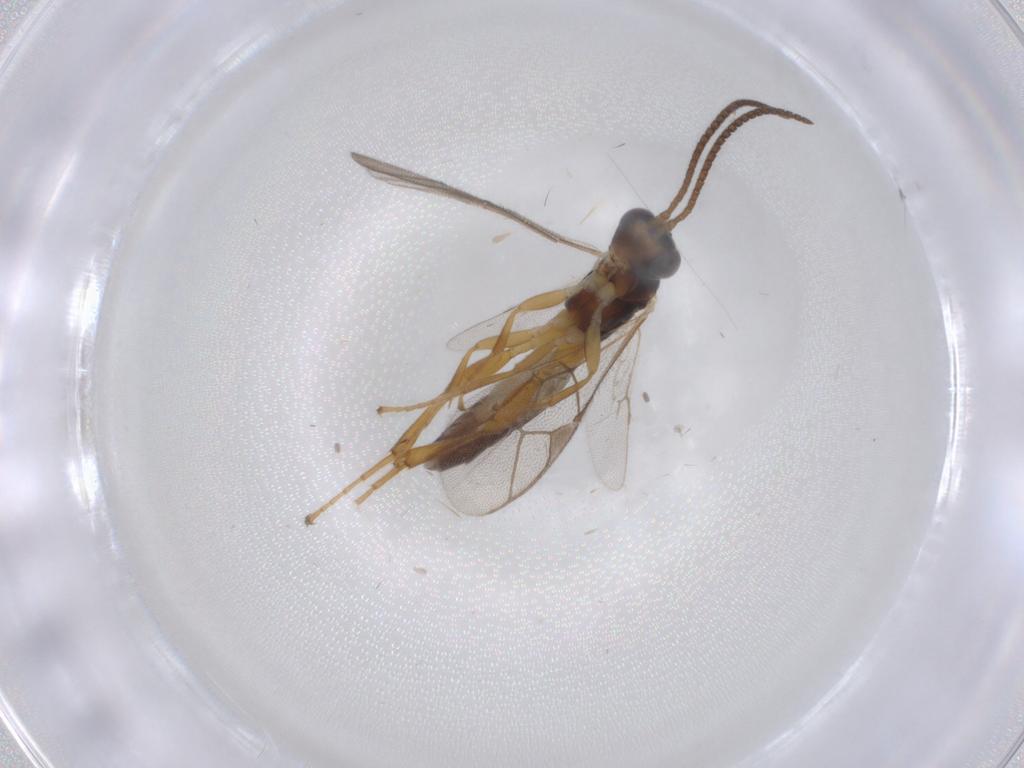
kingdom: Animalia
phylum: Arthropoda
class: Insecta
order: Hymenoptera
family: Ichneumonidae
